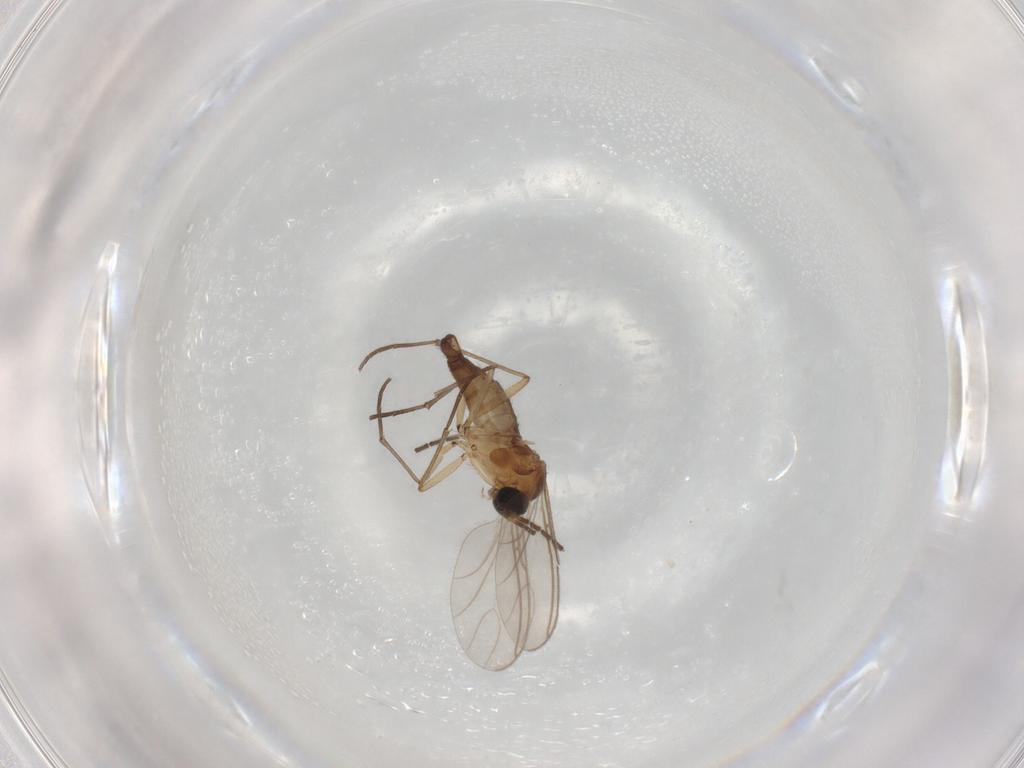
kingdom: Animalia
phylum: Arthropoda
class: Insecta
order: Diptera
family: Sciaridae
